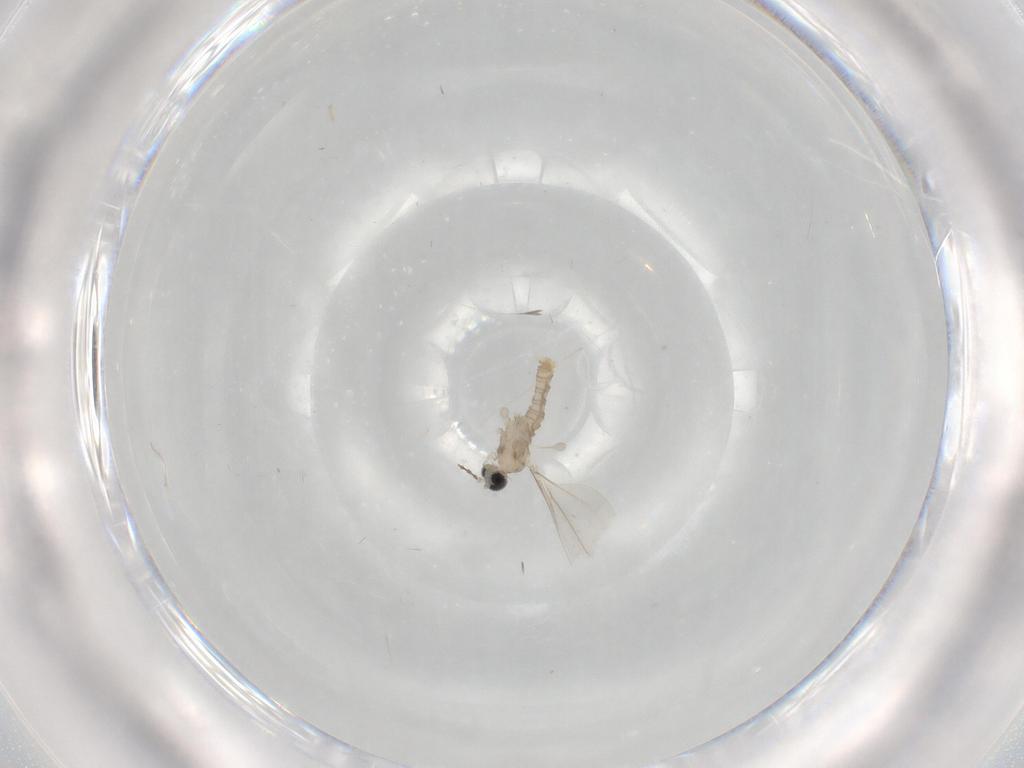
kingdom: Animalia
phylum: Arthropoda
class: Insecta
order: Diptera
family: Cecidomyiidae
